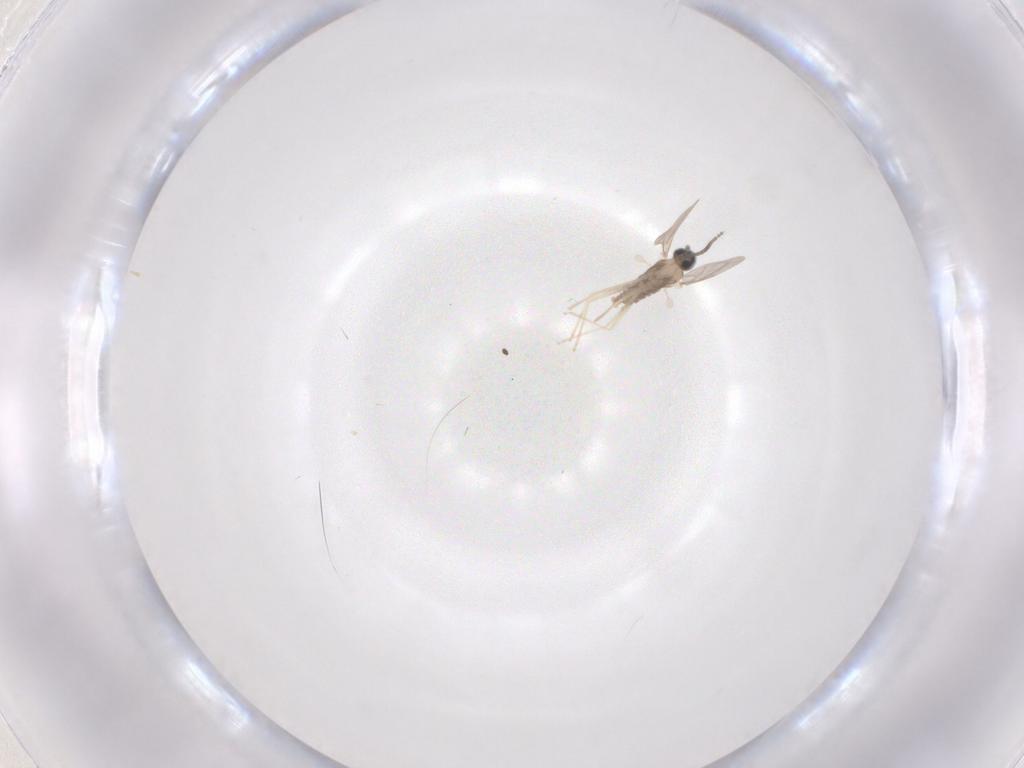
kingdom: Animalia
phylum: Arthropoda
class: Insecta
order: Diptera
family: Cecidomyiidae
